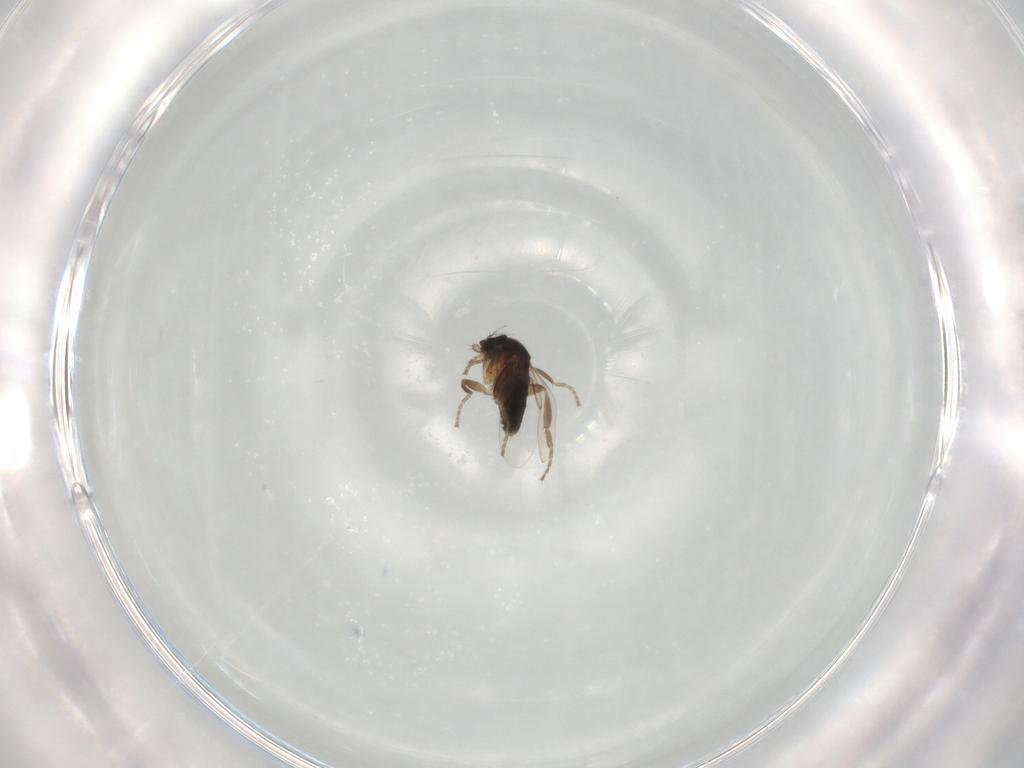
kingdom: Animalia
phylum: Arthropoda
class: Insecta
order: Diptera
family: Phoridae
